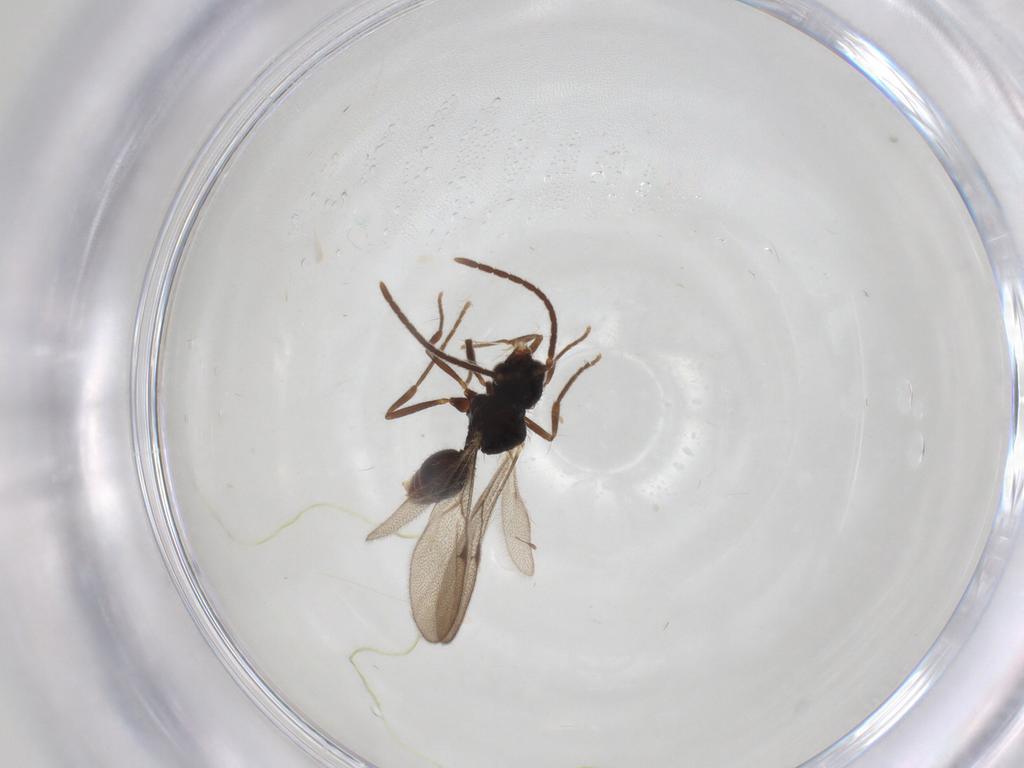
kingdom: Animalia
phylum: Arthropoda
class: Insecta
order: Hymenoptera
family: Formicidae
